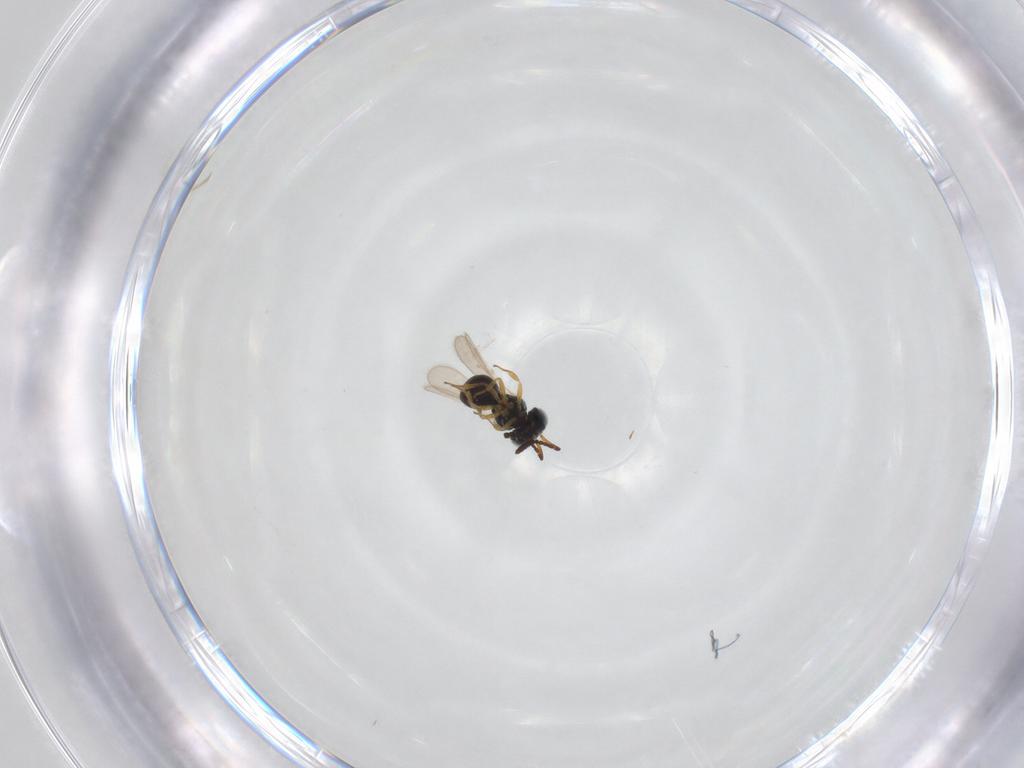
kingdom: Animalia
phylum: Arthropoda
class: Insecta
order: Hymenoptera
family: Scelionidae
